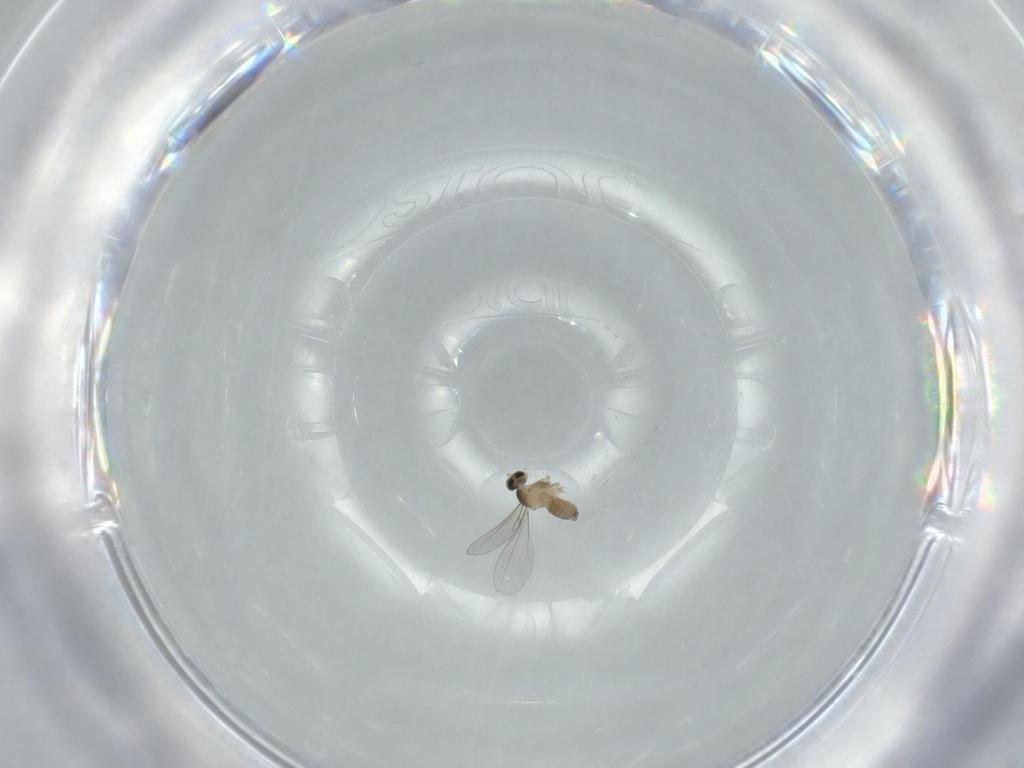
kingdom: Animalia
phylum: Arthropoda
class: Insecta
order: Diptera
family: Cecidomyiidae
